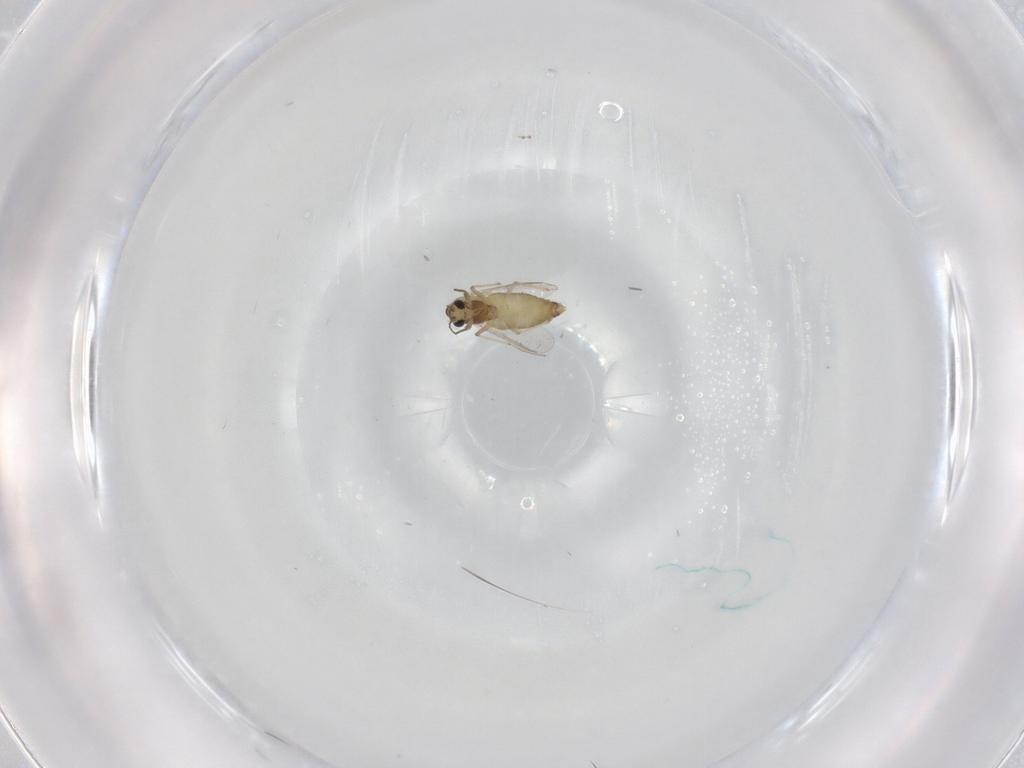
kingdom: Animalia
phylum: Arthropoda
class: Insecta
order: Diptera
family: Chironomidae
